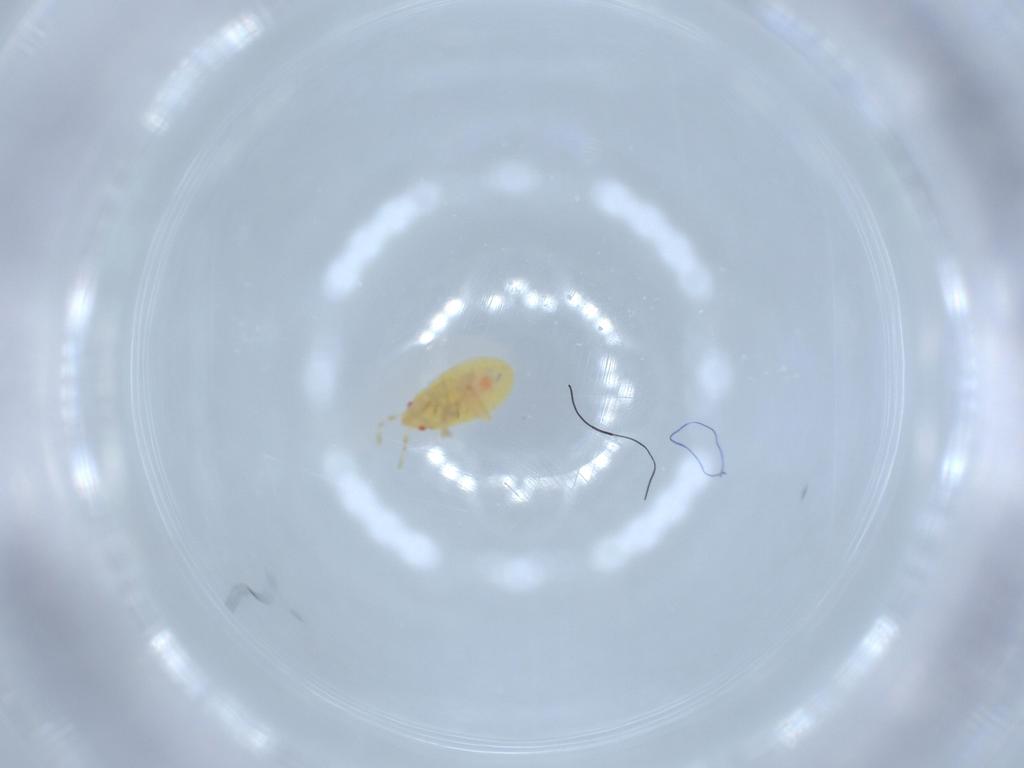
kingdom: Animalia
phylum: Arthropoda
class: Insecta
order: Hemiptera
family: Anthocoridae
